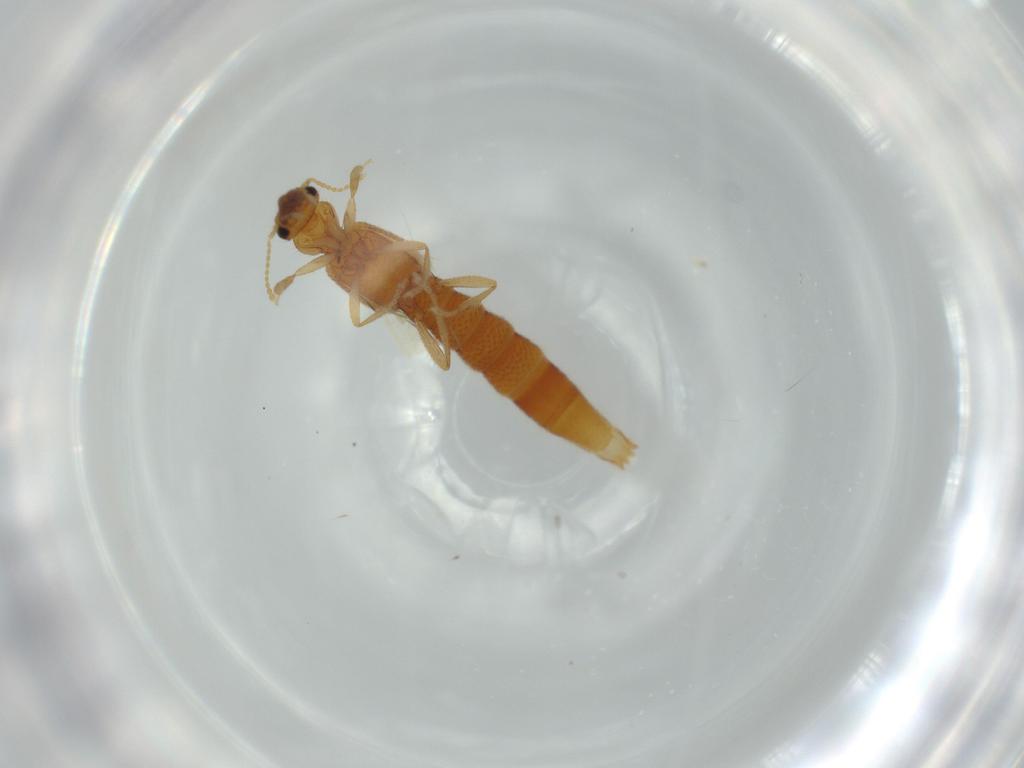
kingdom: Animalia
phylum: Arthropoda
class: Insecta
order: Coleoptera
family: Staphylinidae
